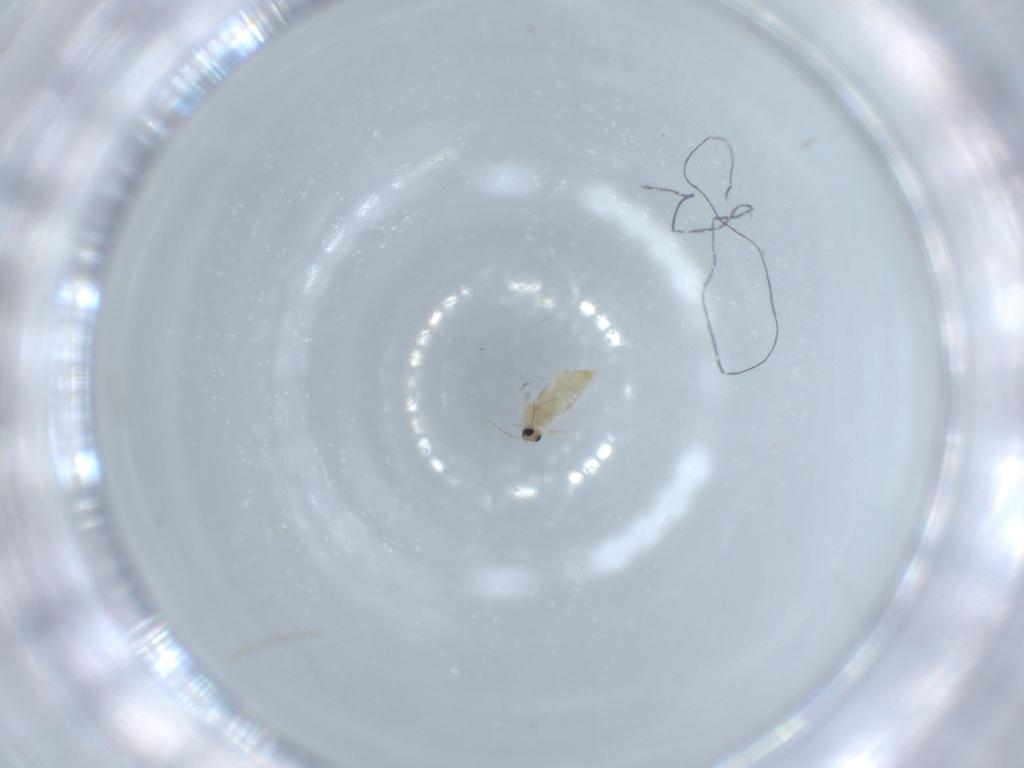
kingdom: Animalia
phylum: Arthropoda
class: Insecta
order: Diptera
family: Cecidomyiidae
